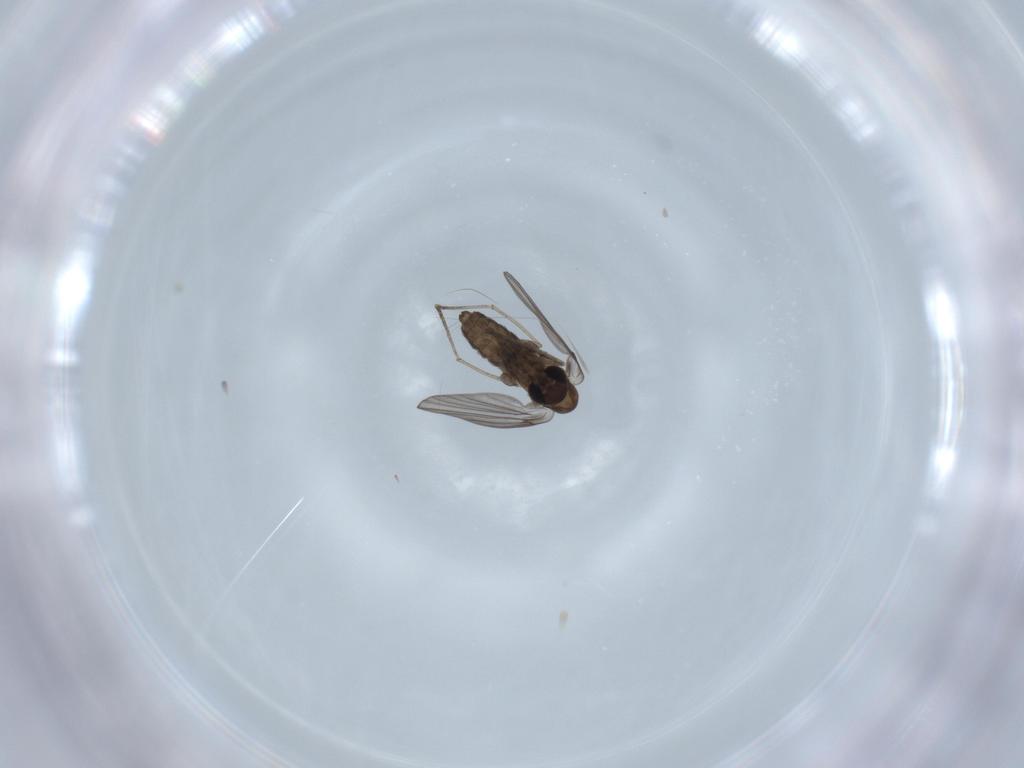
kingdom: Animalia
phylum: Arthropoda
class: Insecta
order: Diptera
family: Psychodidae
